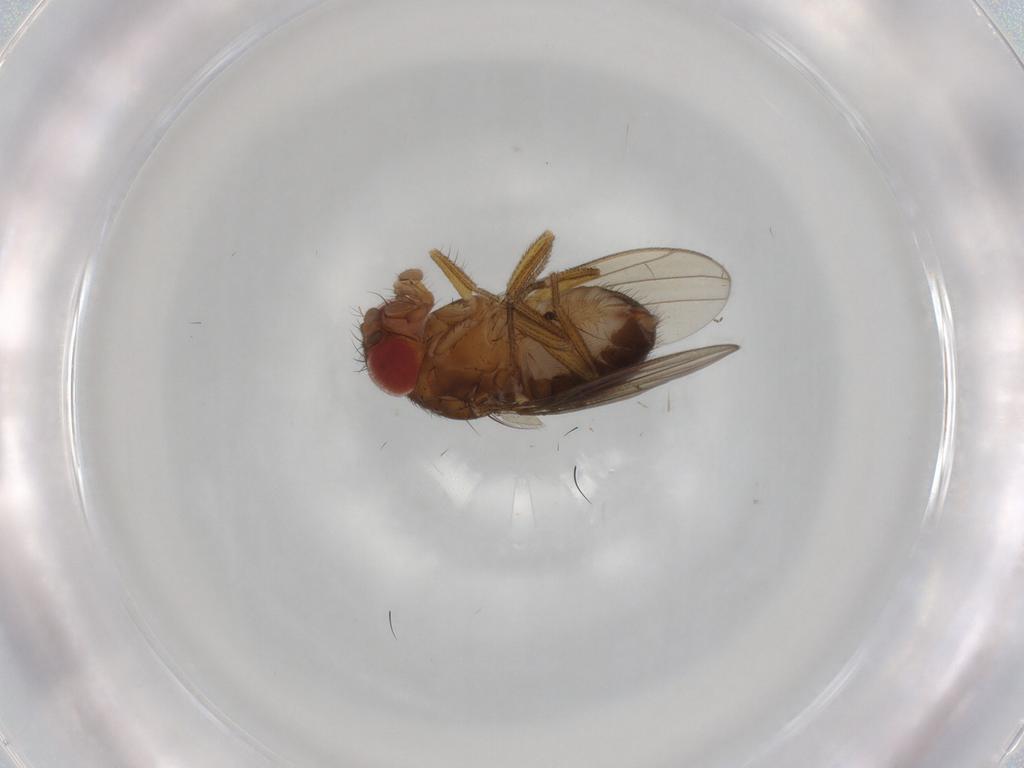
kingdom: Animalia
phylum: Arthropoda
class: Insecta
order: Diptera
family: Drosophilidae
